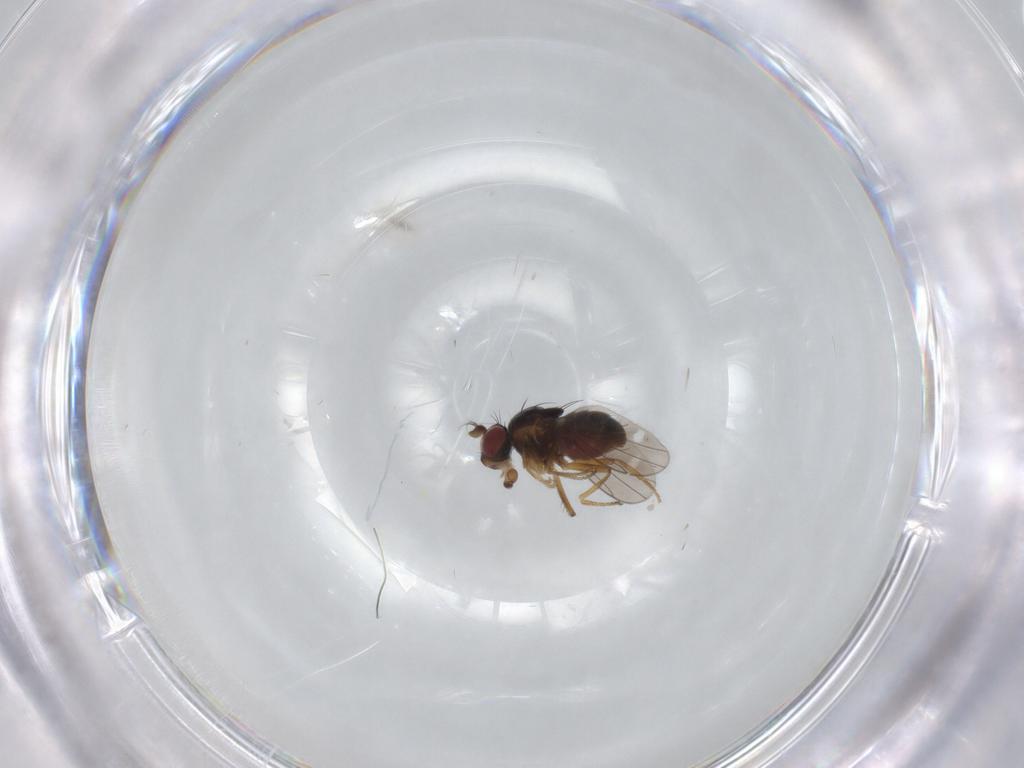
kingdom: Animalia
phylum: Arthropoda
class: Insecta
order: Diptera
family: Ephydridae
